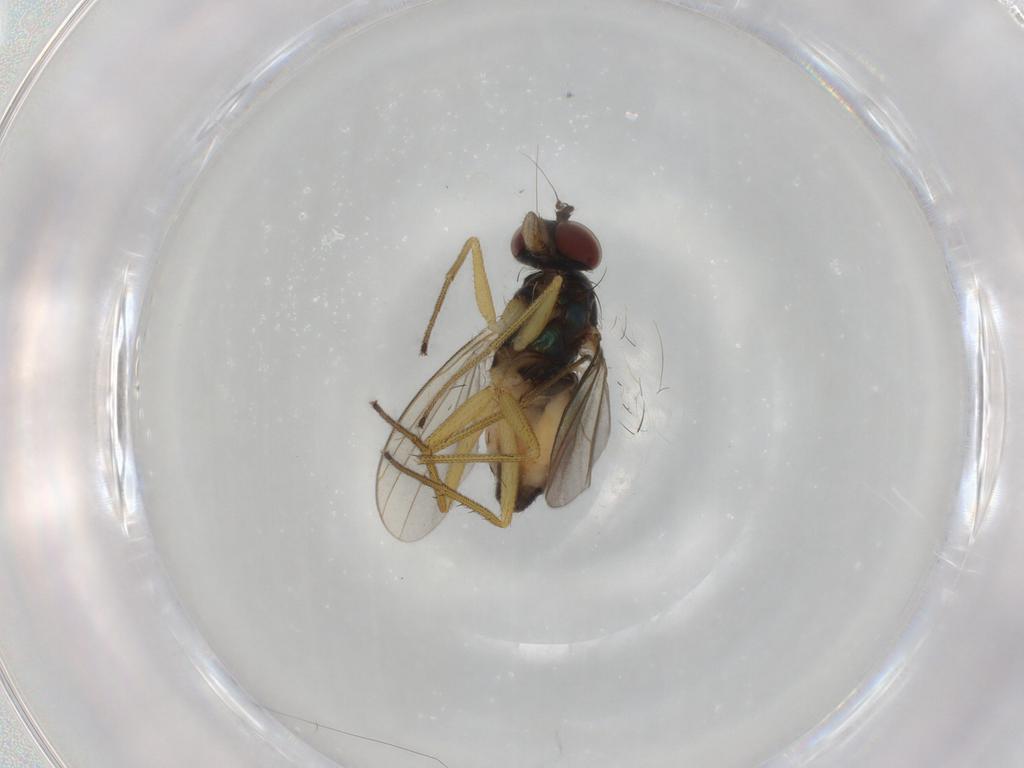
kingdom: Animalia
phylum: Arthropoda
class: Insecta
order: Diptera
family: Dolichopodidae
